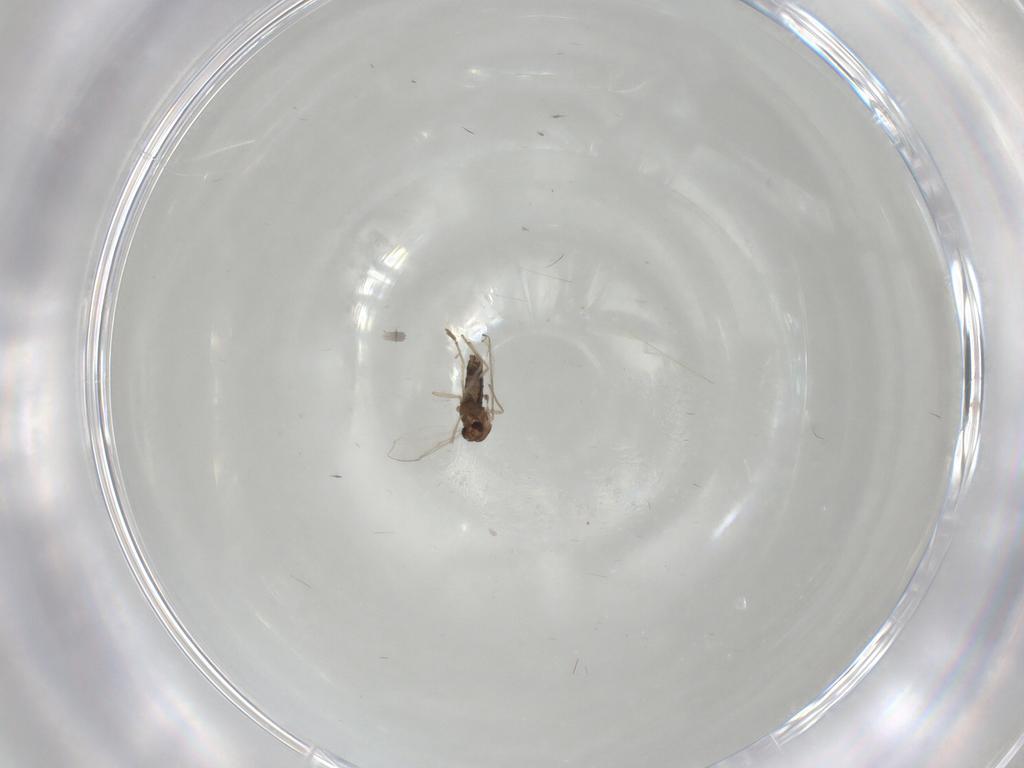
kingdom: Animalia
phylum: Arthropoda
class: Insecta
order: Diptera
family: Chironomidae
